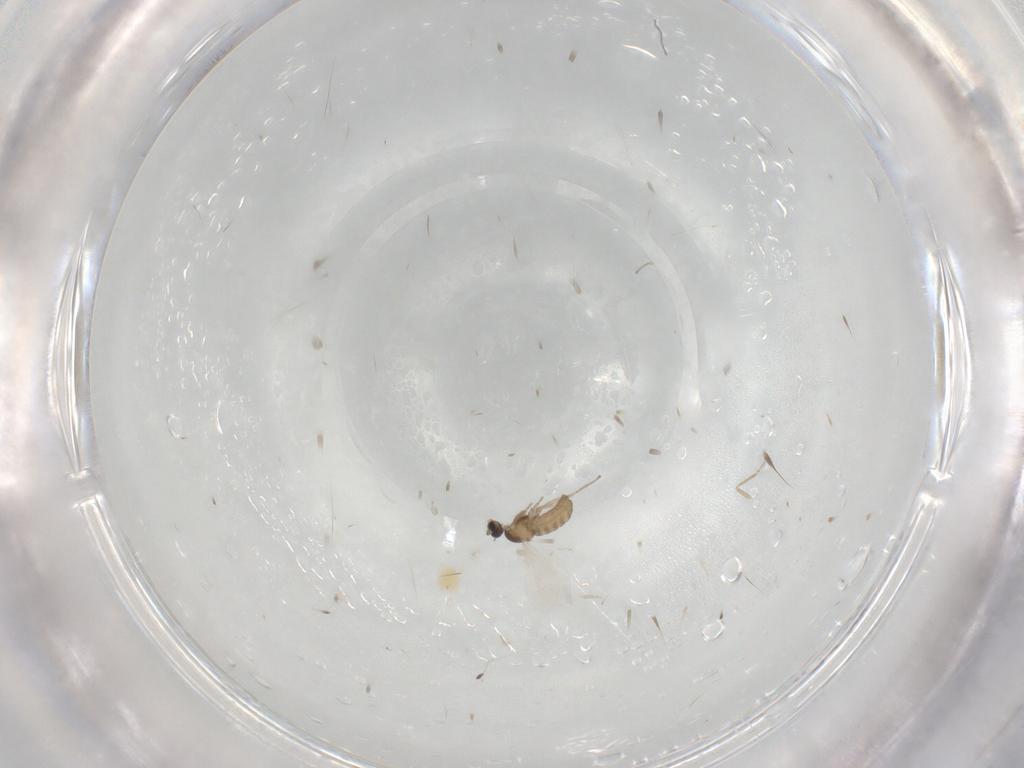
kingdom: Animalia
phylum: Arthropoda
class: Insecta
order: Diptera
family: Cecidomyiidae
